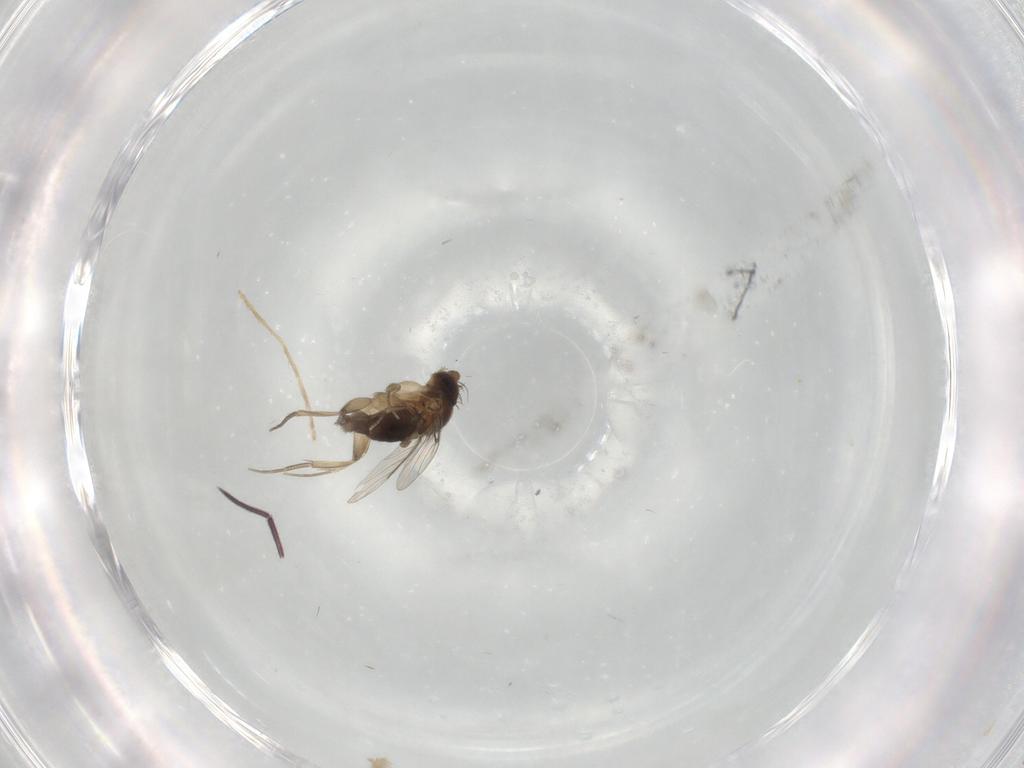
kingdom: Animalia
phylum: Arthropoda
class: Insecta
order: Diptera
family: Phoridae
